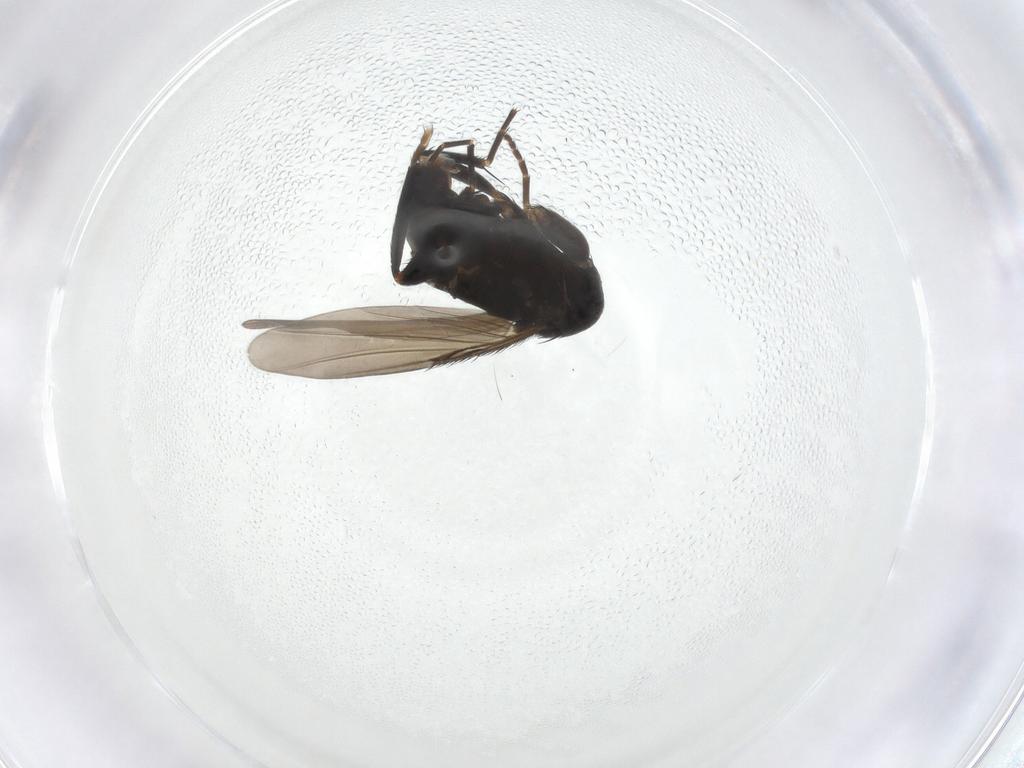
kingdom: Animalia
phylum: Arthropoda
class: Insecta
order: Diptera
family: Phoridae
